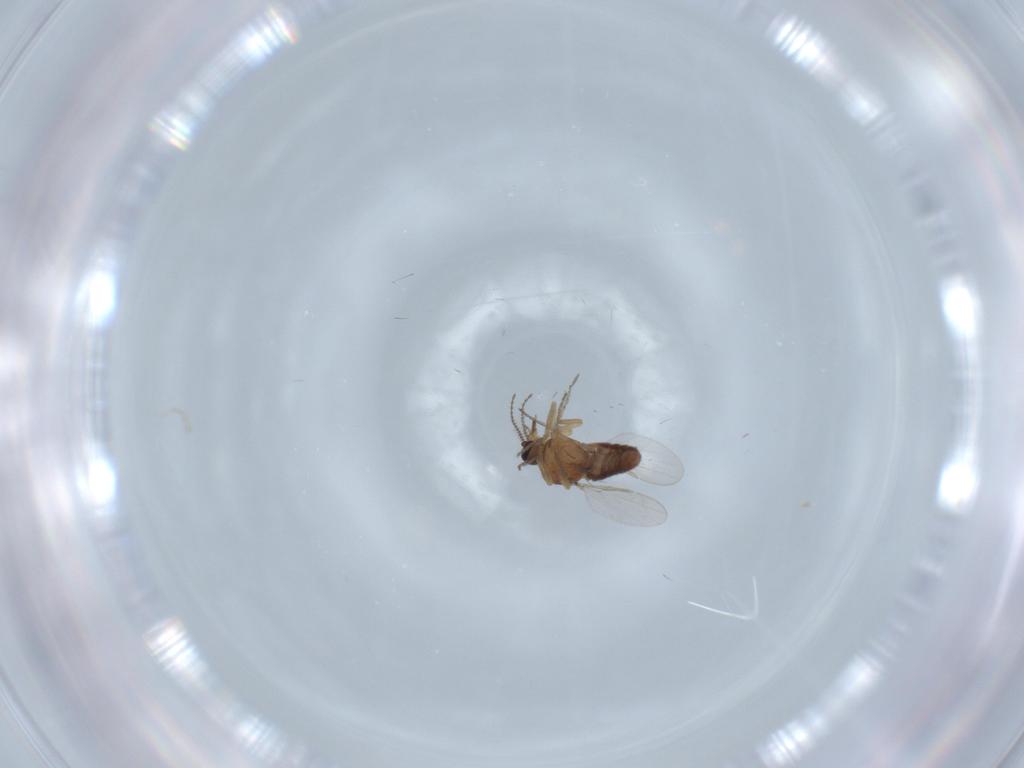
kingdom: Animalia
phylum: Arthropoda
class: Insecta
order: Diptera
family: Ceratopogonidae
